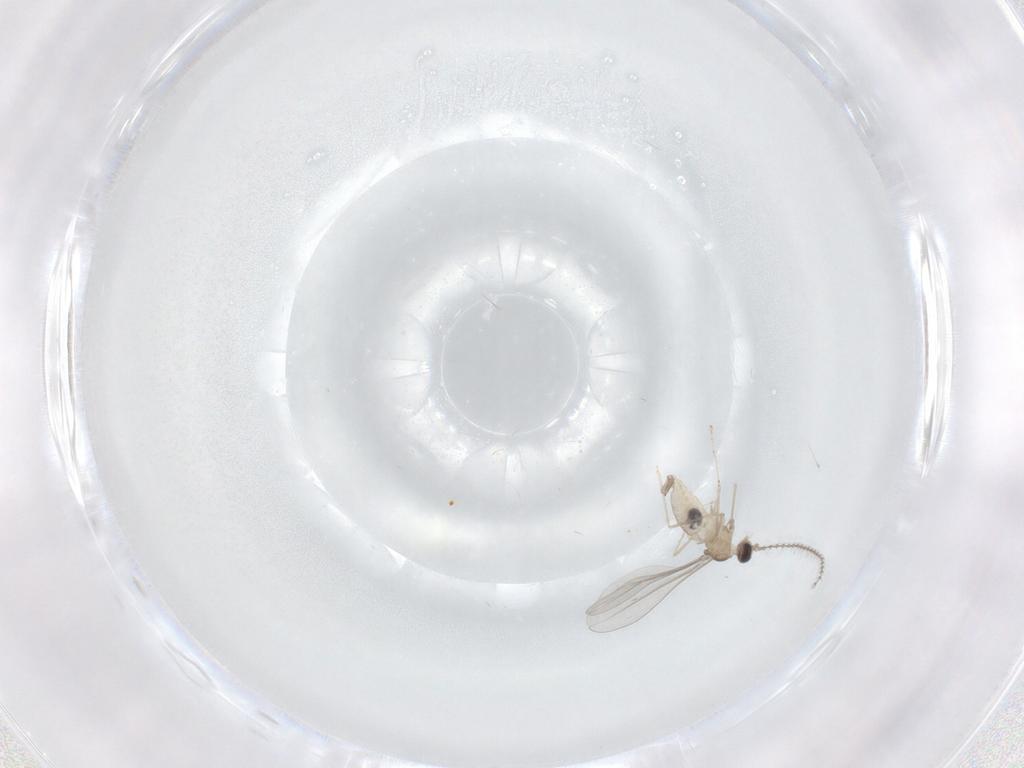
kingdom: Animalia
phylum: Arthropoda
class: Insecta
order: Diptera
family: Cecidomyiidae
